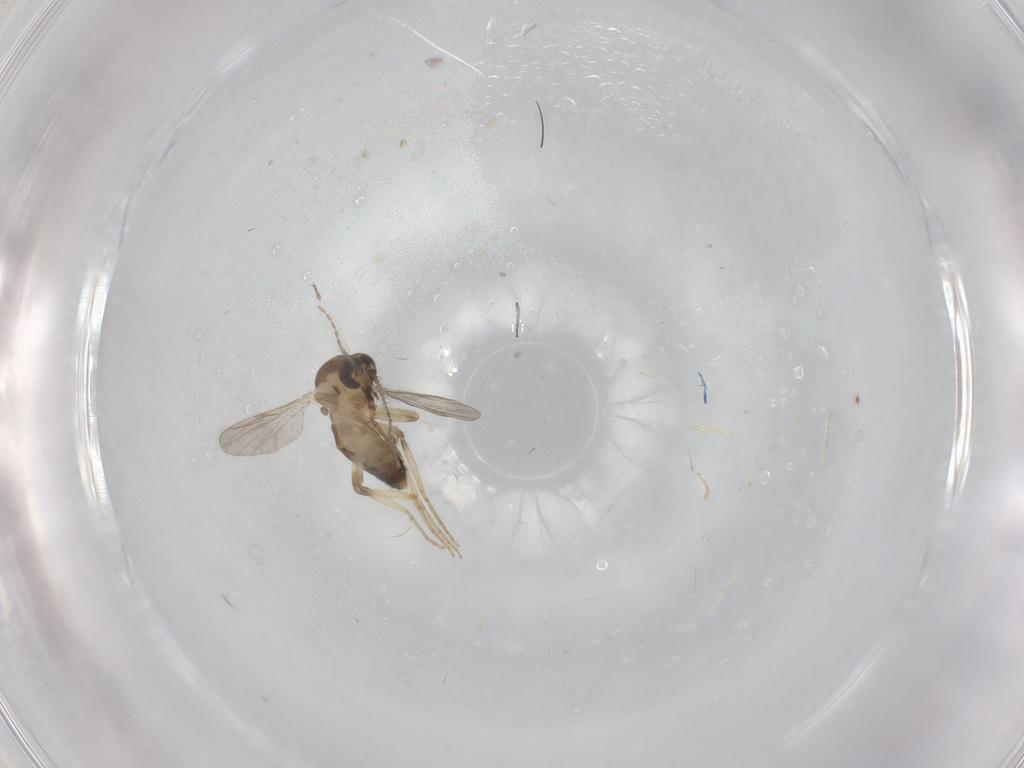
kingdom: Animalia
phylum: Arthropoda
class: Insecta
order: Diptera
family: Ceratopogonidae
